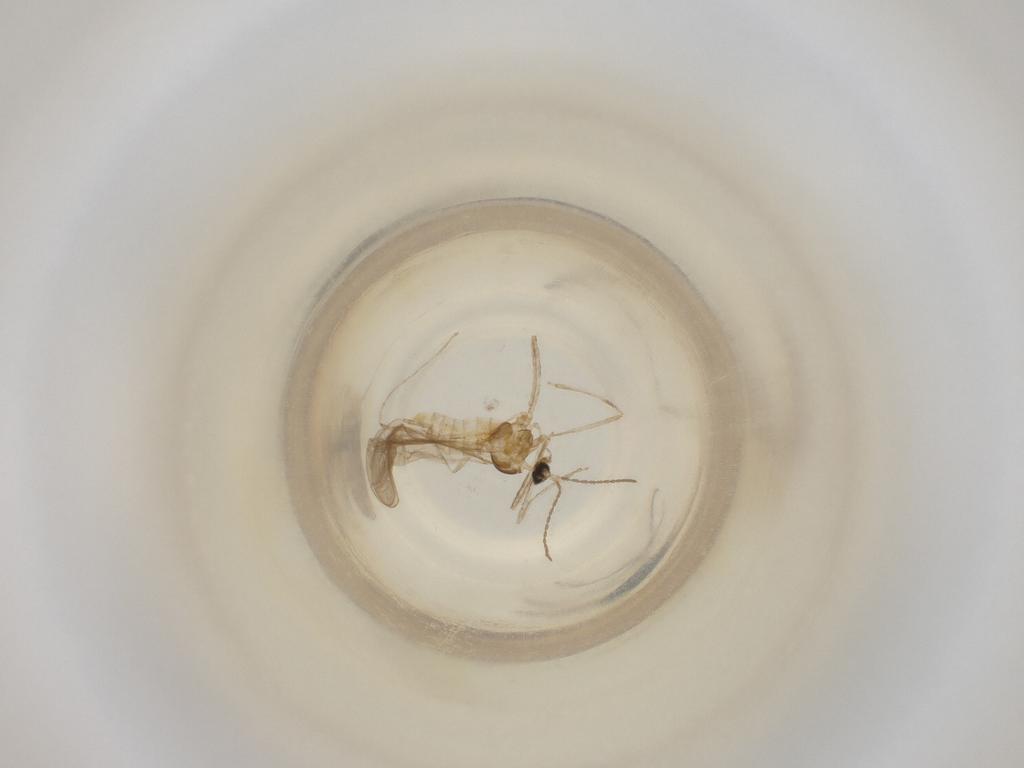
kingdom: Animalia
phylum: Arthropoda
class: Insecta
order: Diptera
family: Cecidomyiidae
